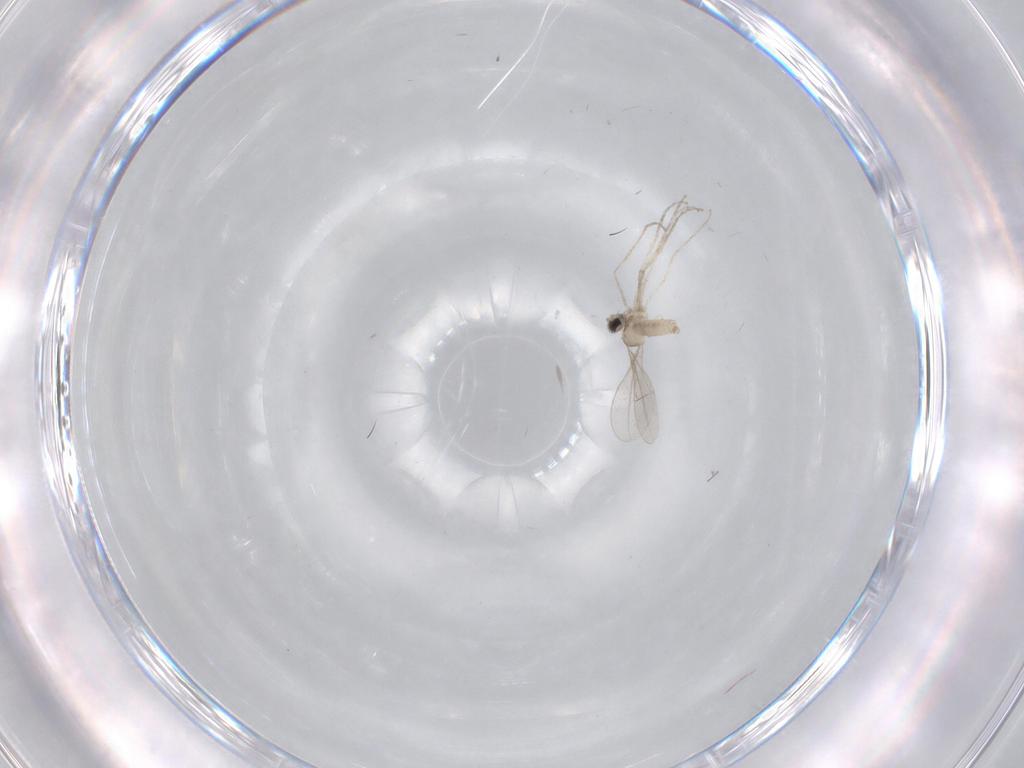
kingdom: Animalia
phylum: Arthropoda
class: Insecta
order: Diptera
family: Cecidomyiidae
